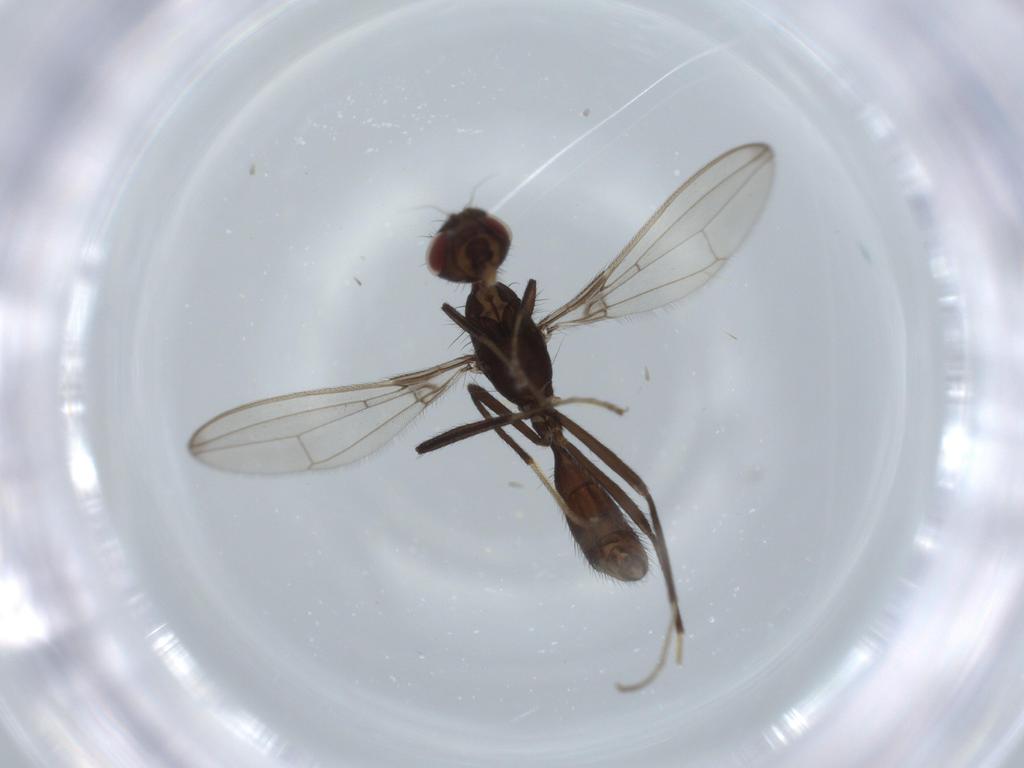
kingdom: Animalia
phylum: Arthropoda
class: Insecta
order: Diptera
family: Richardiidae
